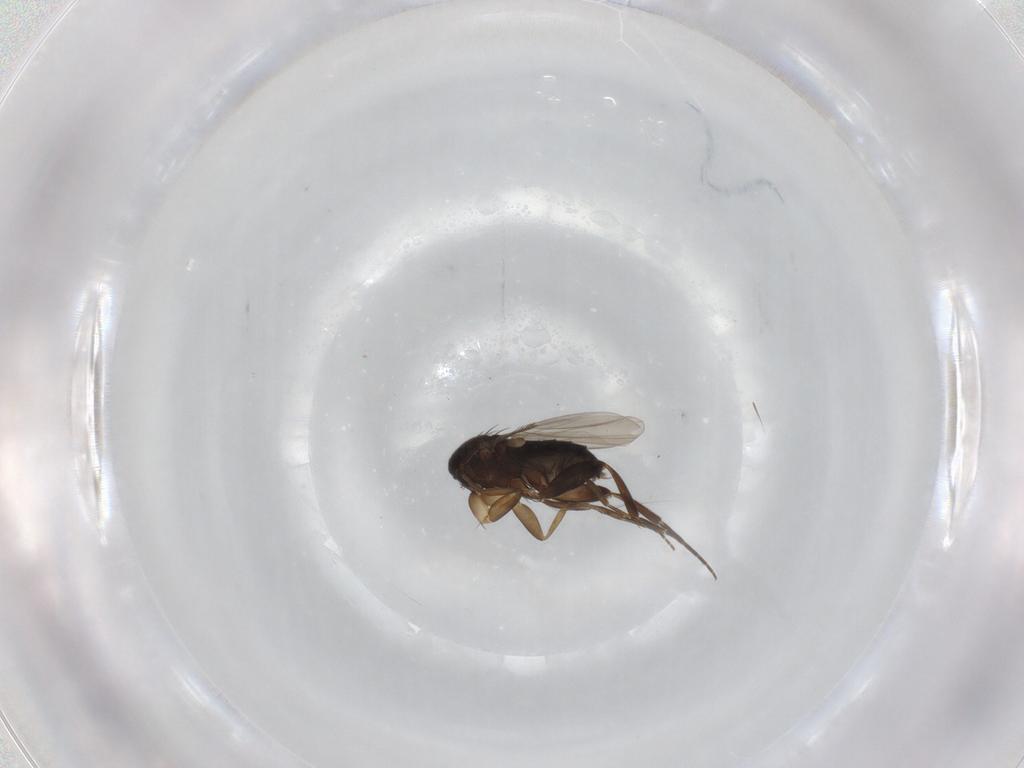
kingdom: Animalia
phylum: Arthropoda
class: Insecta
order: Diptera
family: Phoridae
